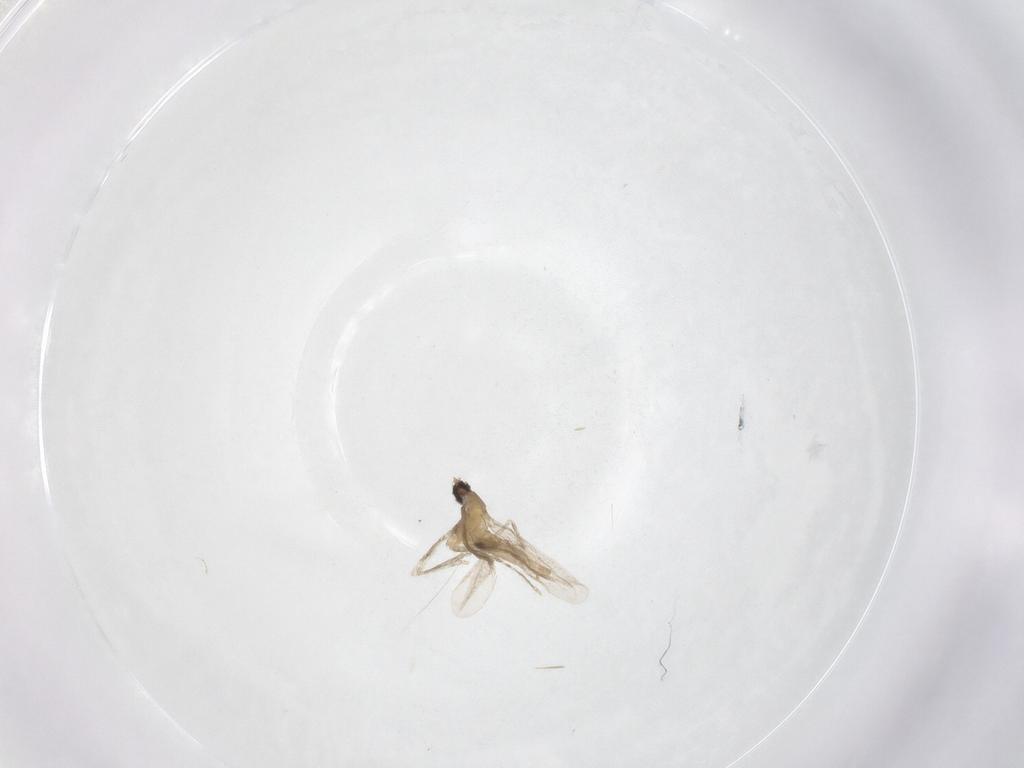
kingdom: Animalia
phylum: Arthropoda
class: Insecta
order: Diptera
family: Cecidomyiidae
